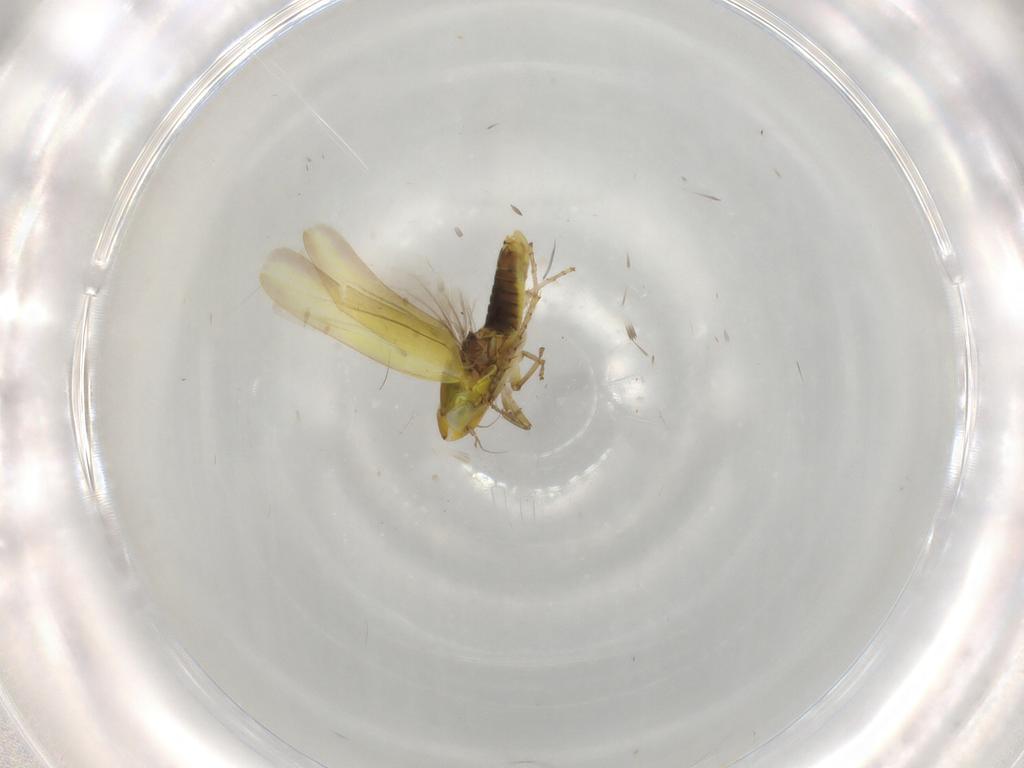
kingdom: Animalia
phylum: Arthropoda
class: Insecta
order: Hemiptera
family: Cicadellidae
